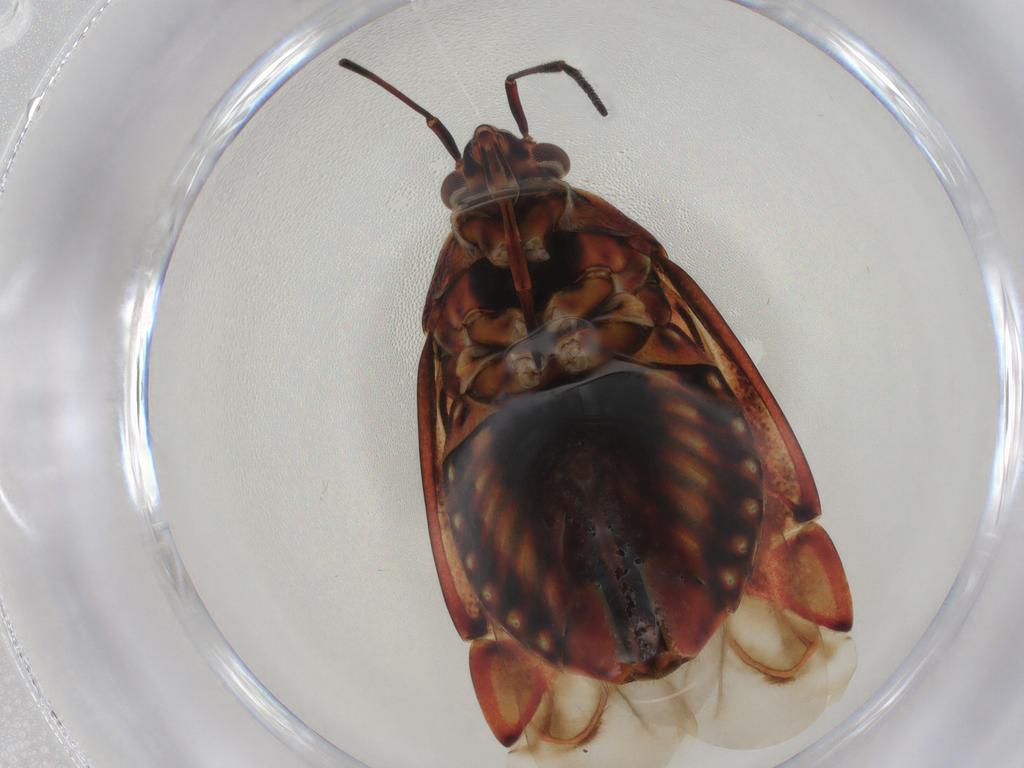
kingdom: Animalia
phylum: Arthropoda
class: Insecta
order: Hemiptera
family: Miridae
